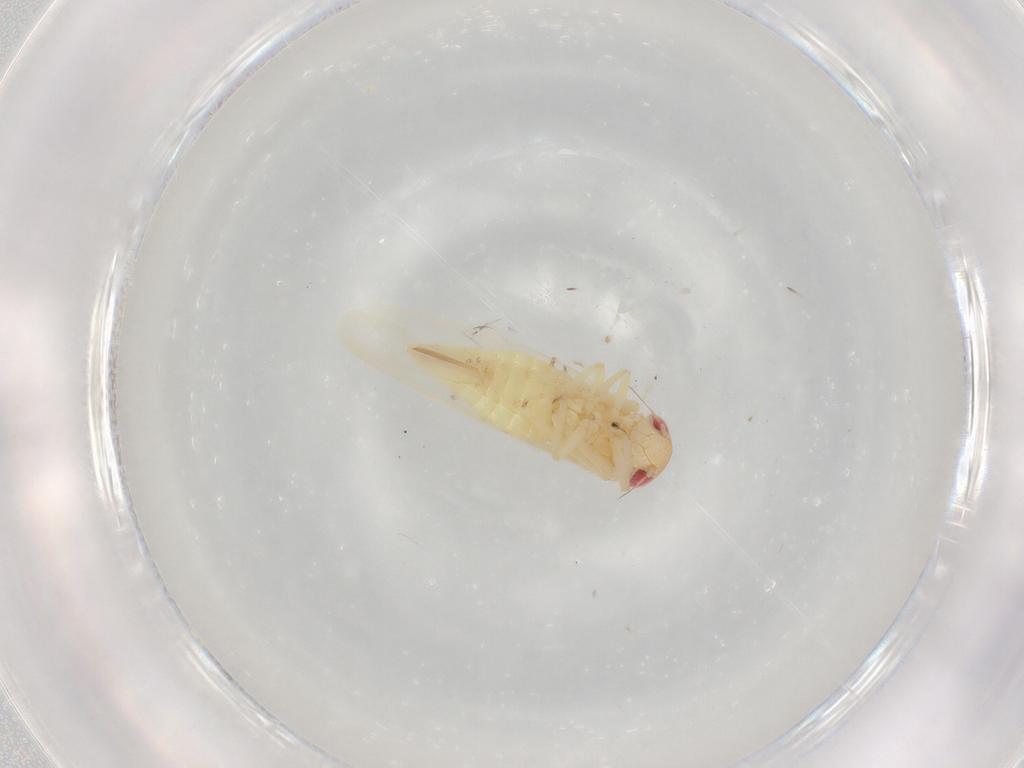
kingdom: Animalia
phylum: Arthropoda
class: Insecta
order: Hemiptera
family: Cicadellidae
